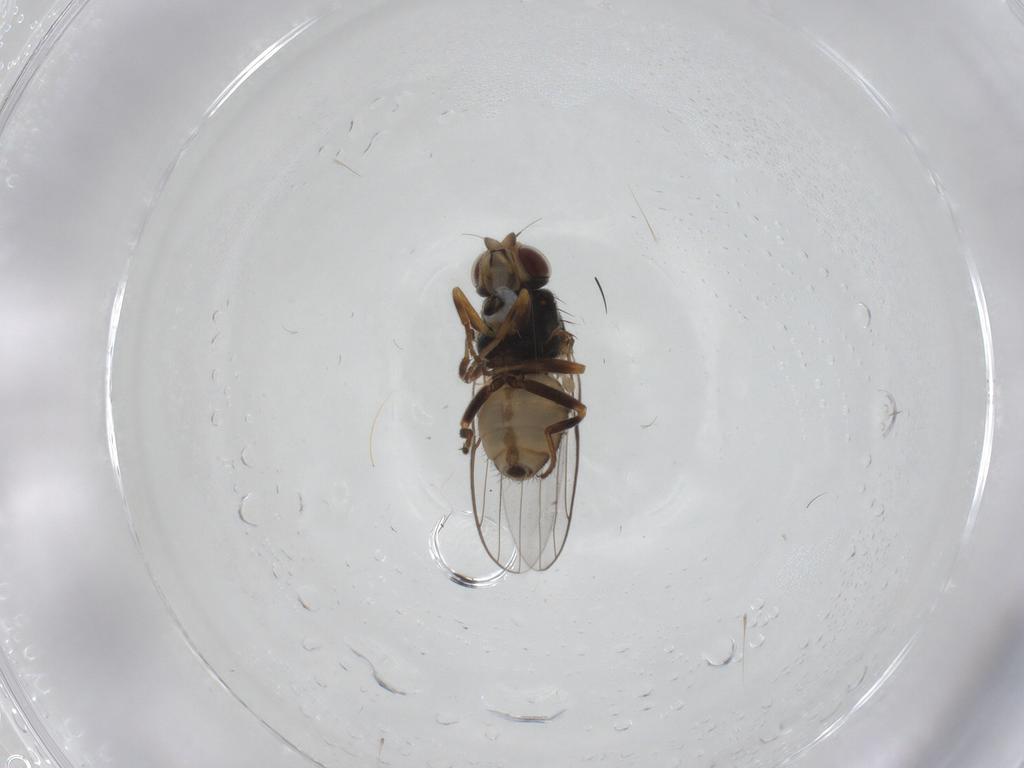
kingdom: Animalia
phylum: Arthropoda
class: Insecta
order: Diptera
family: Chloropidae
